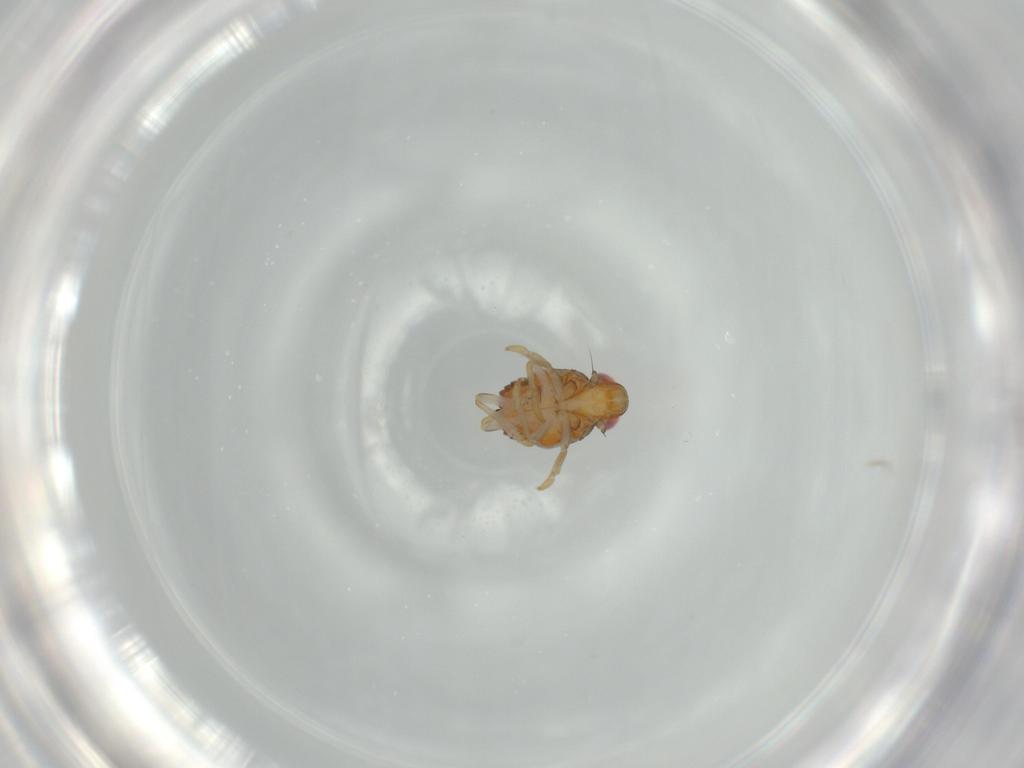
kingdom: Animalia
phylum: Arthropoda
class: Insecta
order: Hemiptera
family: Issidae
